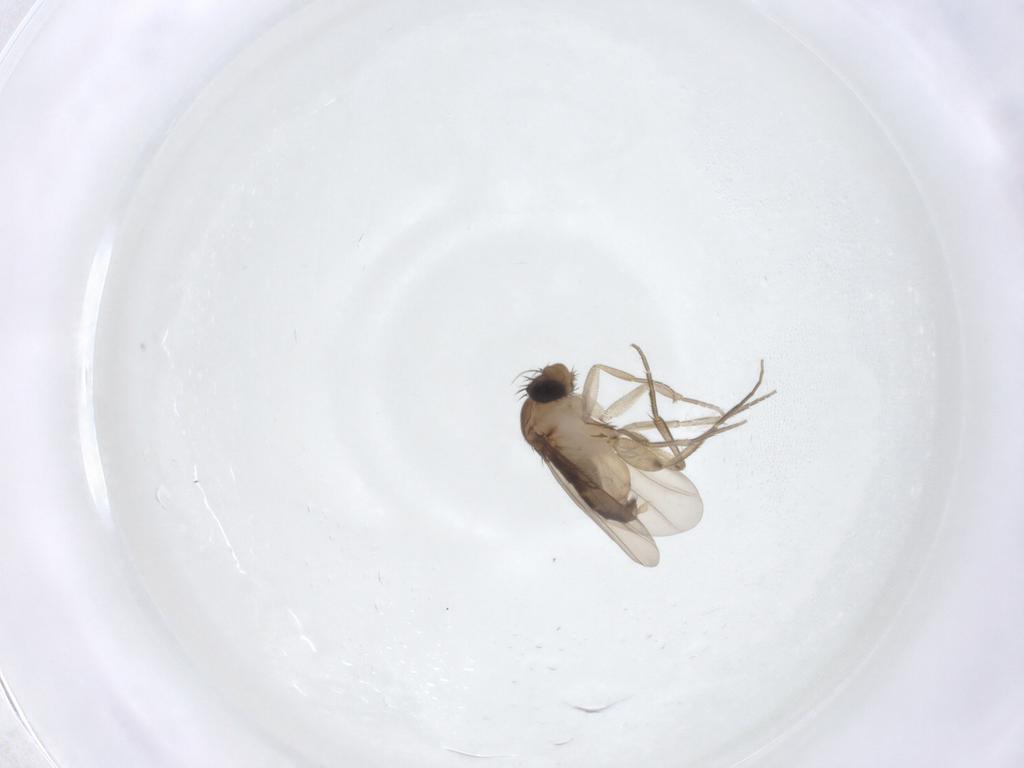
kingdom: Animalia
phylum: Arthropoda
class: Insecta
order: Diptera
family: Phoridae
